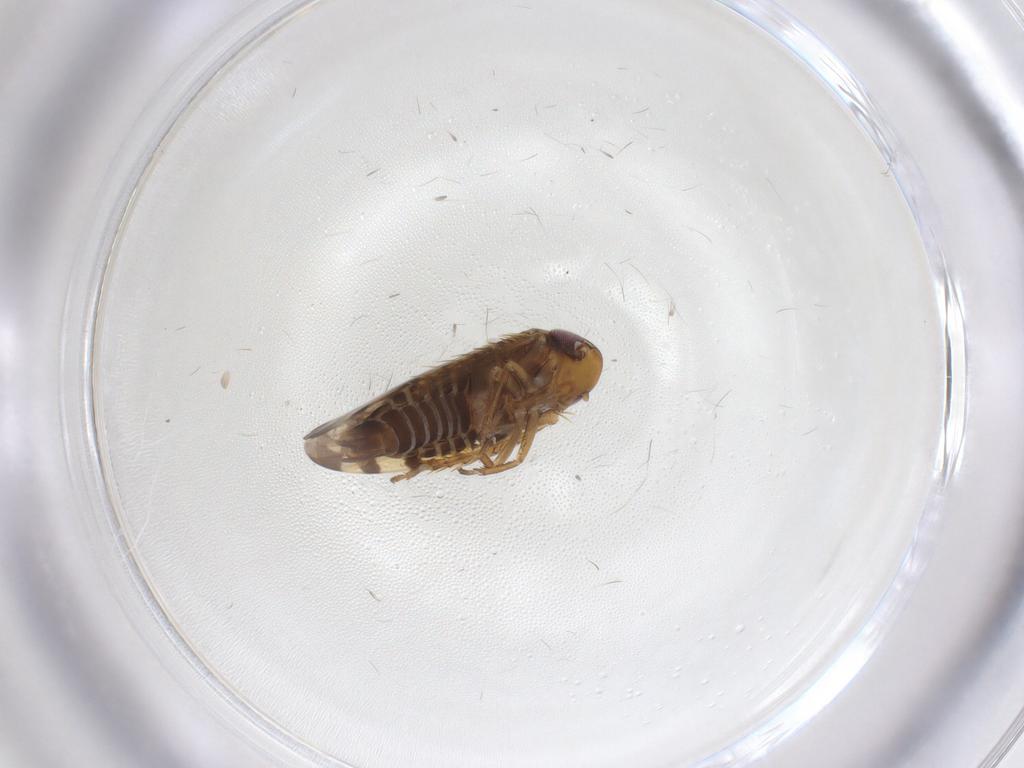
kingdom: Animalia
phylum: Arthropoda
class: Insecta
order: Hemiptera
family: Cicadellidae
